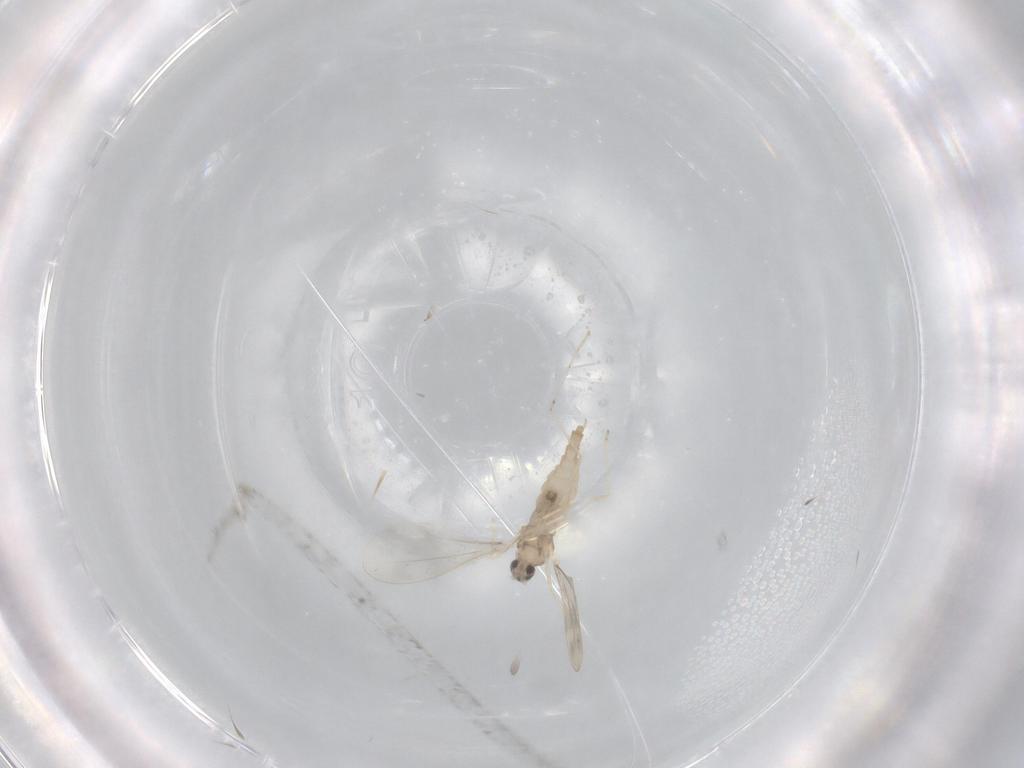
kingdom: Animalia
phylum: Arthropoda
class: Insecta
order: Diptera
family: Cecidomyiidae
